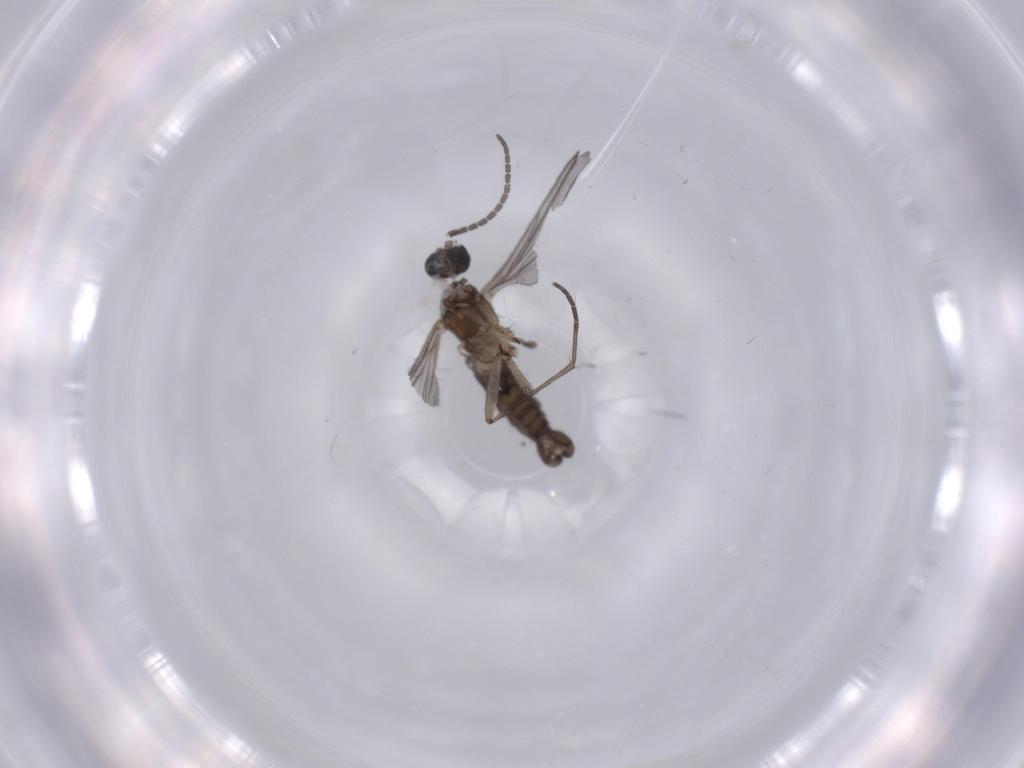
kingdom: Animalia
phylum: Arthropoda
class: Insecta
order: Diptera
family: Sciaridae
